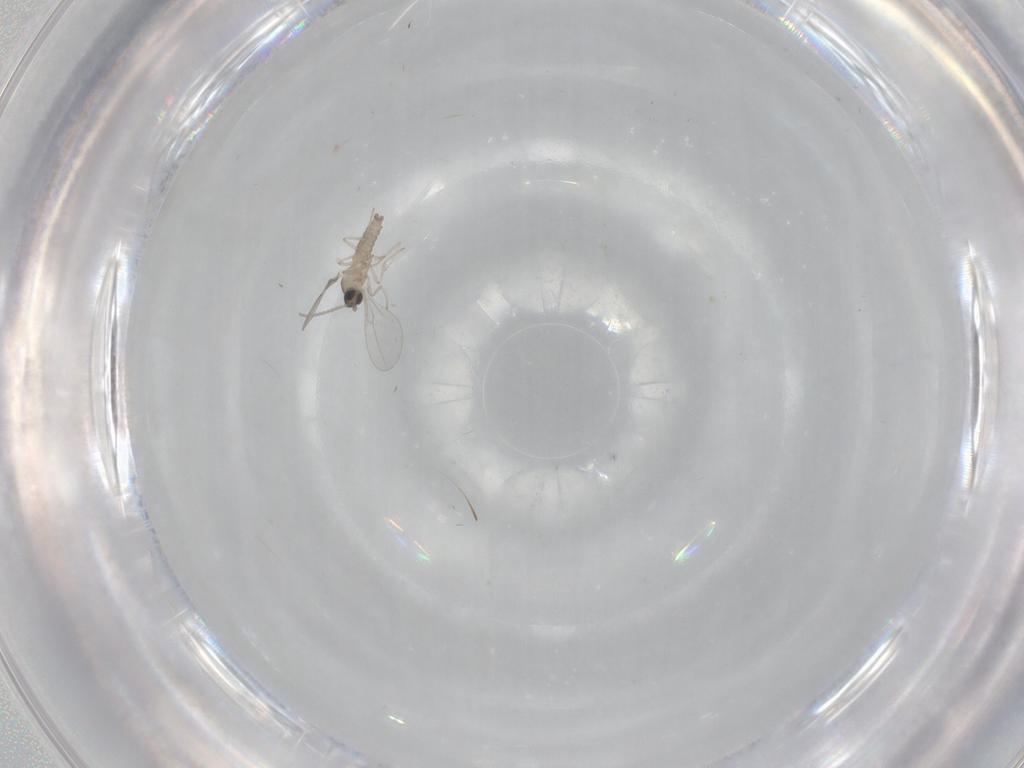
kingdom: Animalia
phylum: Arthropoda
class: Insecta
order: Diptera
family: Cecidomyiidae
